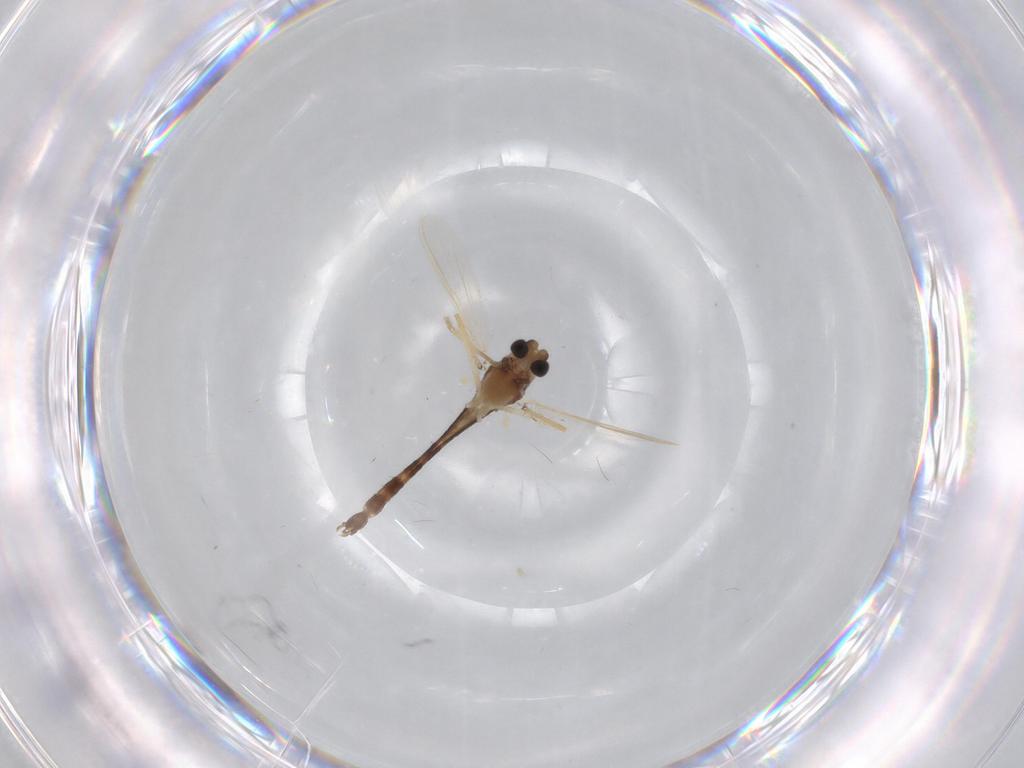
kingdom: Animalia
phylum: Arthropoda
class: Insecta
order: Diptera
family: Chironomidae
